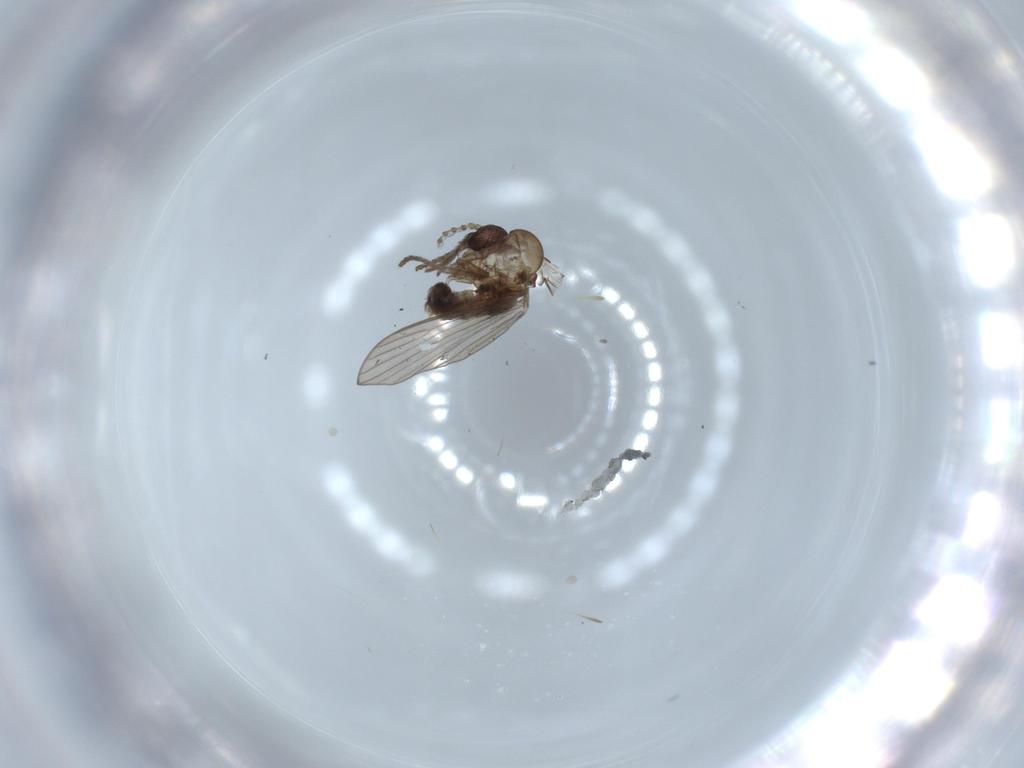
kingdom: Animalia
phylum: Arthropoda
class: Insecta
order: Diptera
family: Psychodidae
